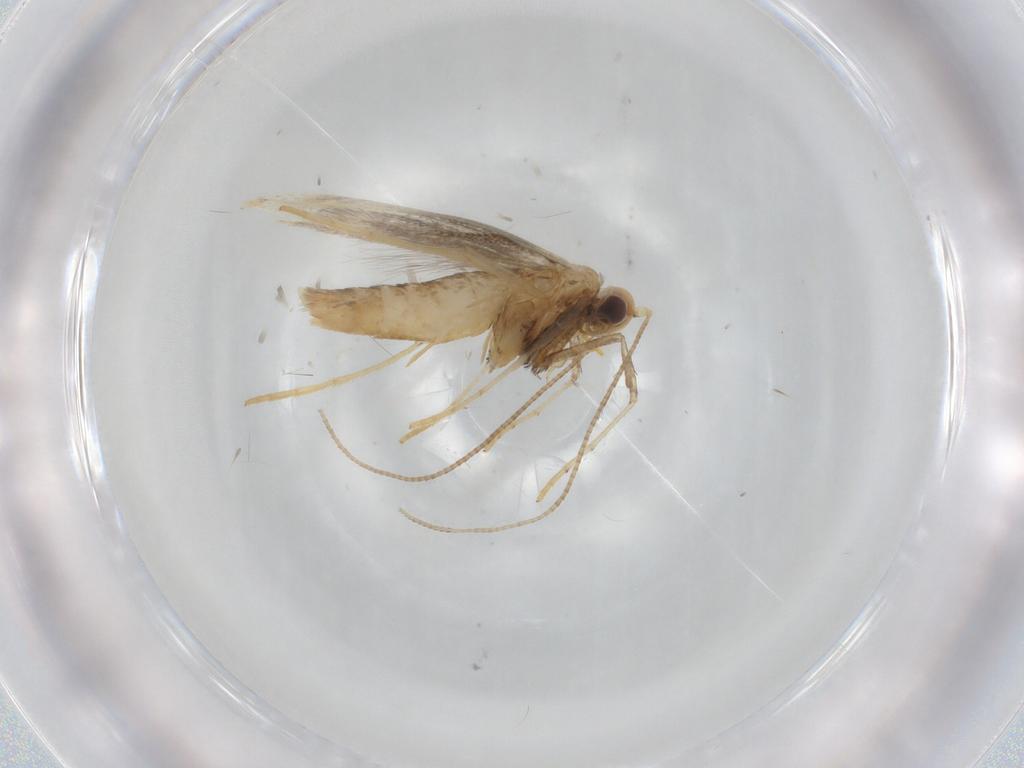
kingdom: Animalia
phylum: Arthropoda
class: Insecta
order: Lepidoptera
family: Gracillariidae
